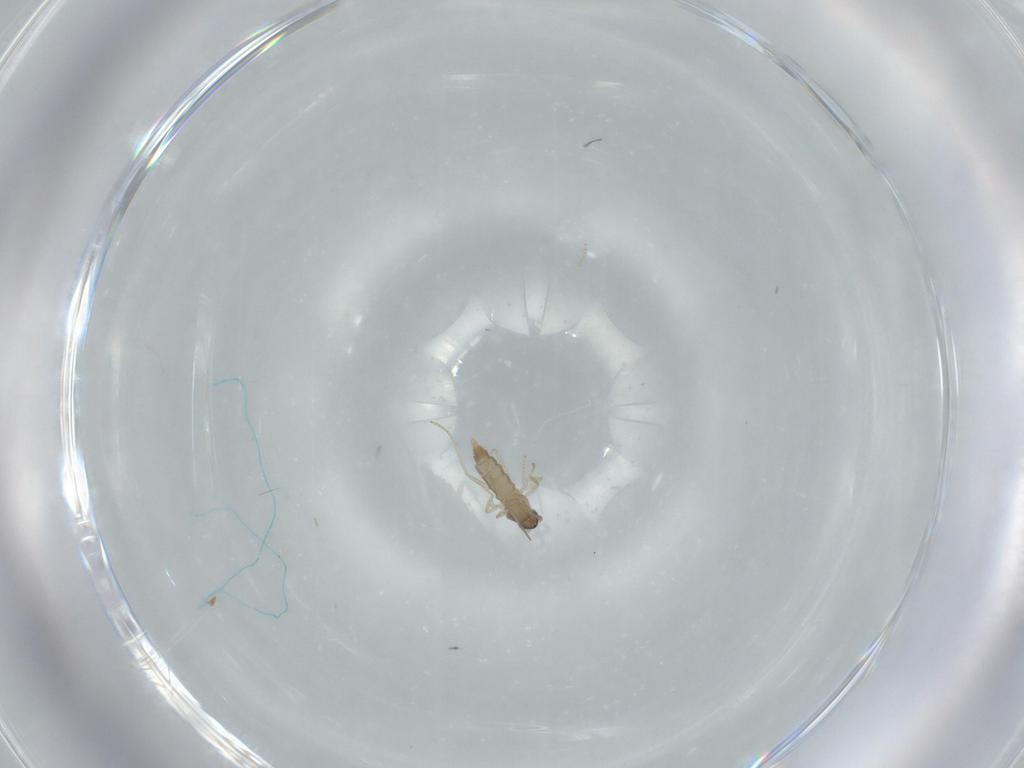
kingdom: Animalia
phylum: Arthropoda
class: Insecta
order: Diptera
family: Cecidomyiidae
